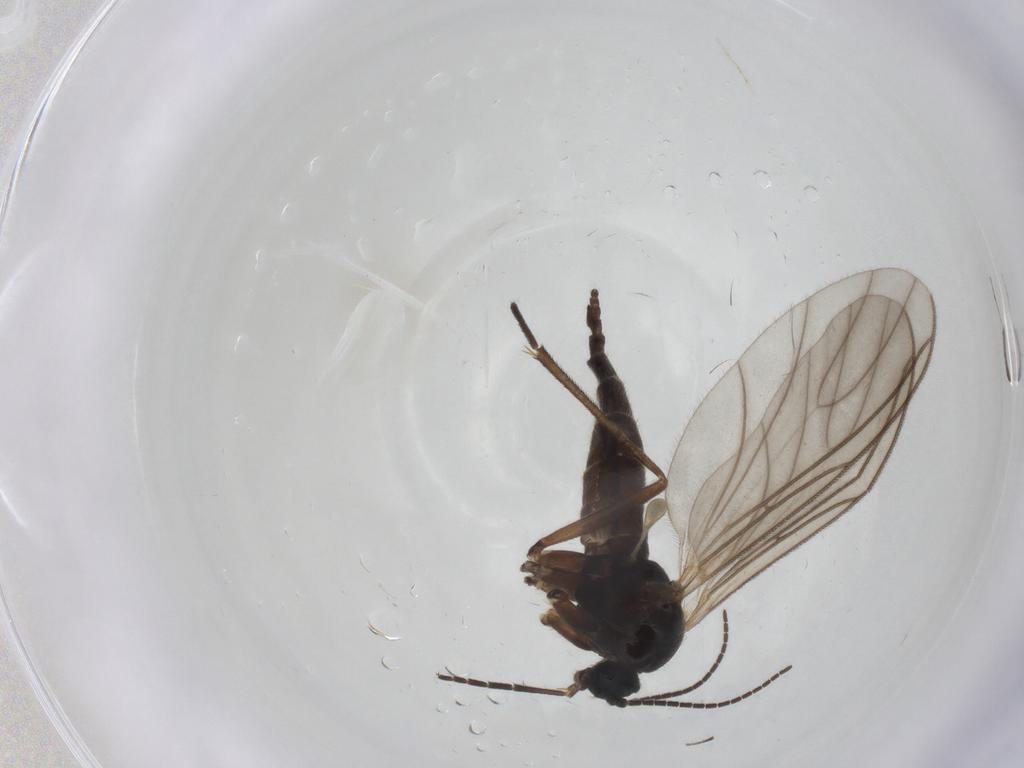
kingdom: Animalia
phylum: Arthropoda
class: Insecta
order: Diptera
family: Sciaridae
